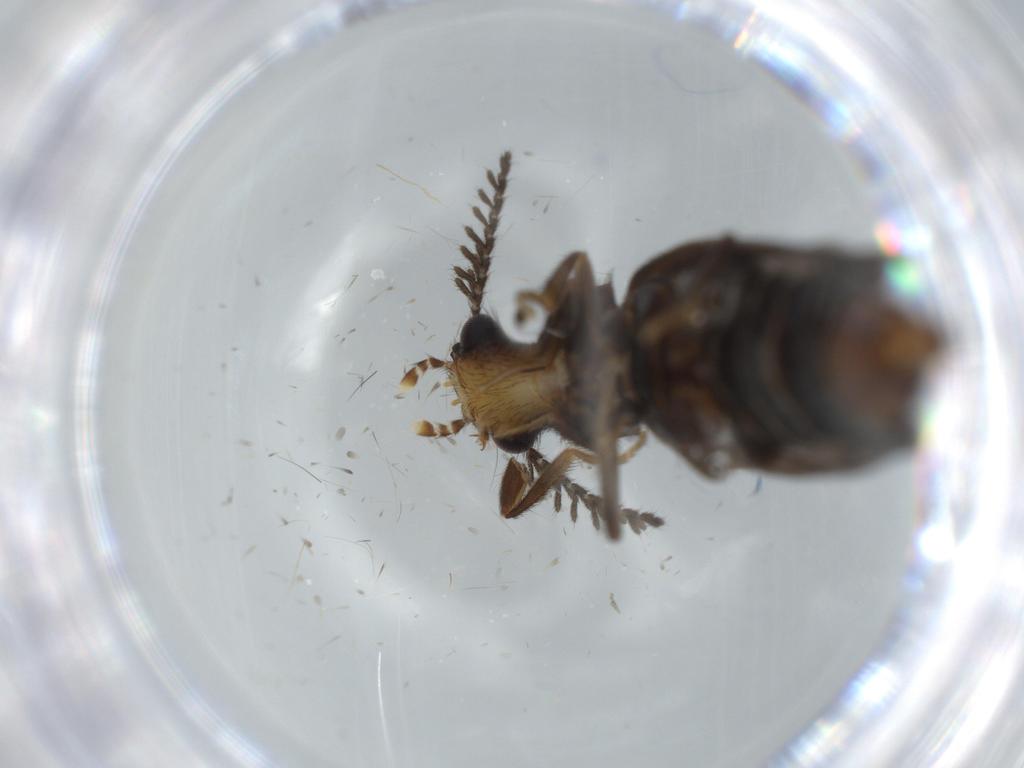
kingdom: Animalia
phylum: Arthropoda
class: Insecta
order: Coleoptera
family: Phengodidae
